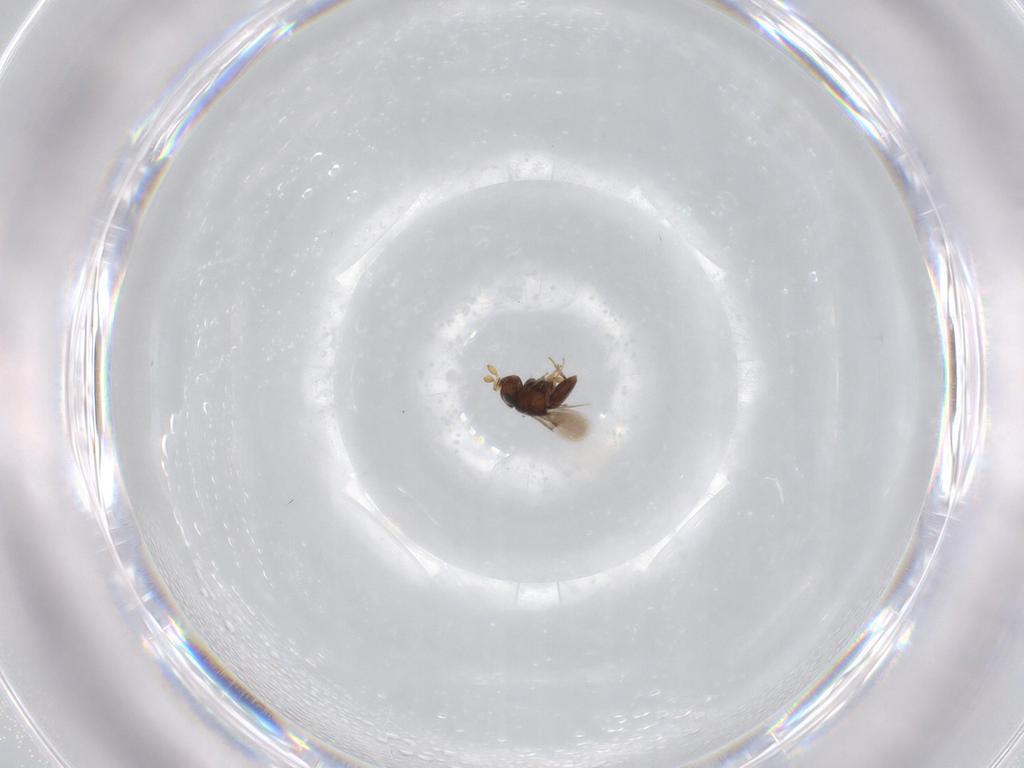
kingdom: Animalia
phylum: Arthropoda
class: Insecta
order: Hymenoptera
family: Scelionidae
